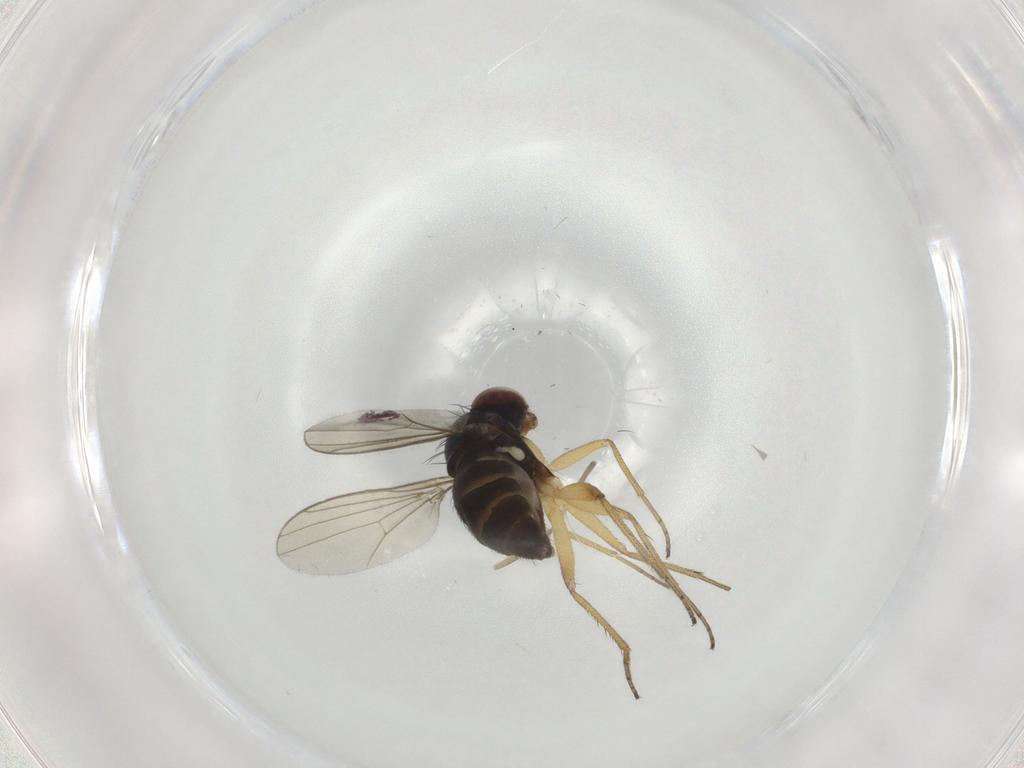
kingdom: Animalia
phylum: Arthropoda
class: Insecta
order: Diptera
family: Dolichopodidae
